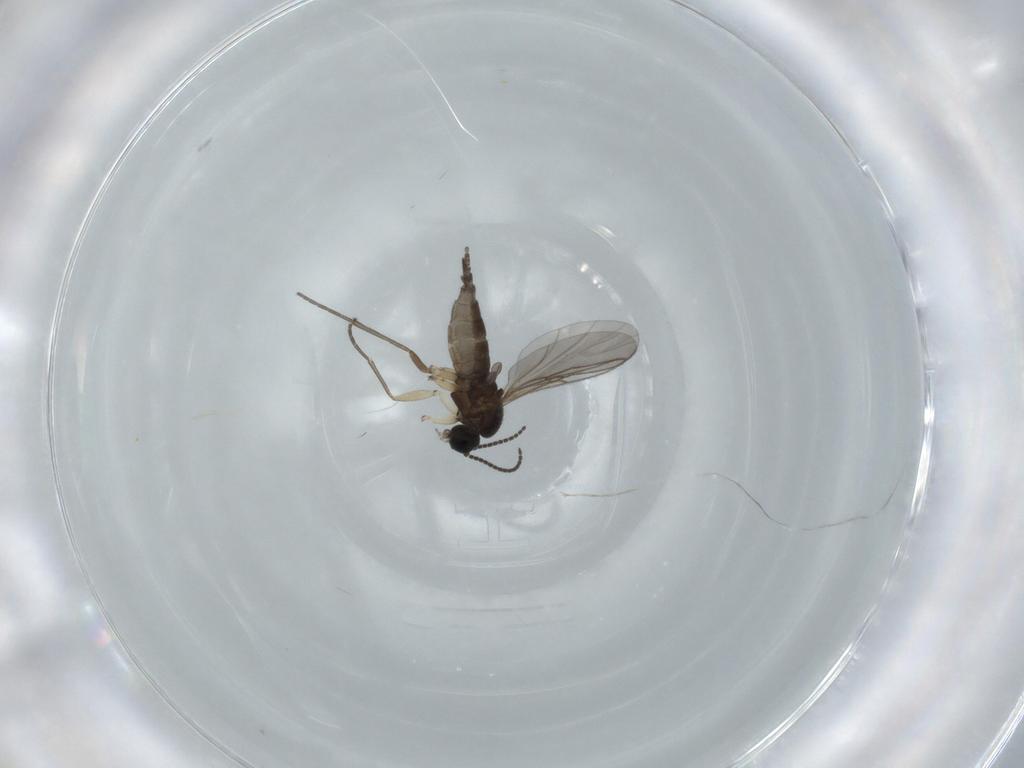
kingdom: Animalia
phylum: Arthropoda
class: Insecta
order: Diptera
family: Sciaridae
